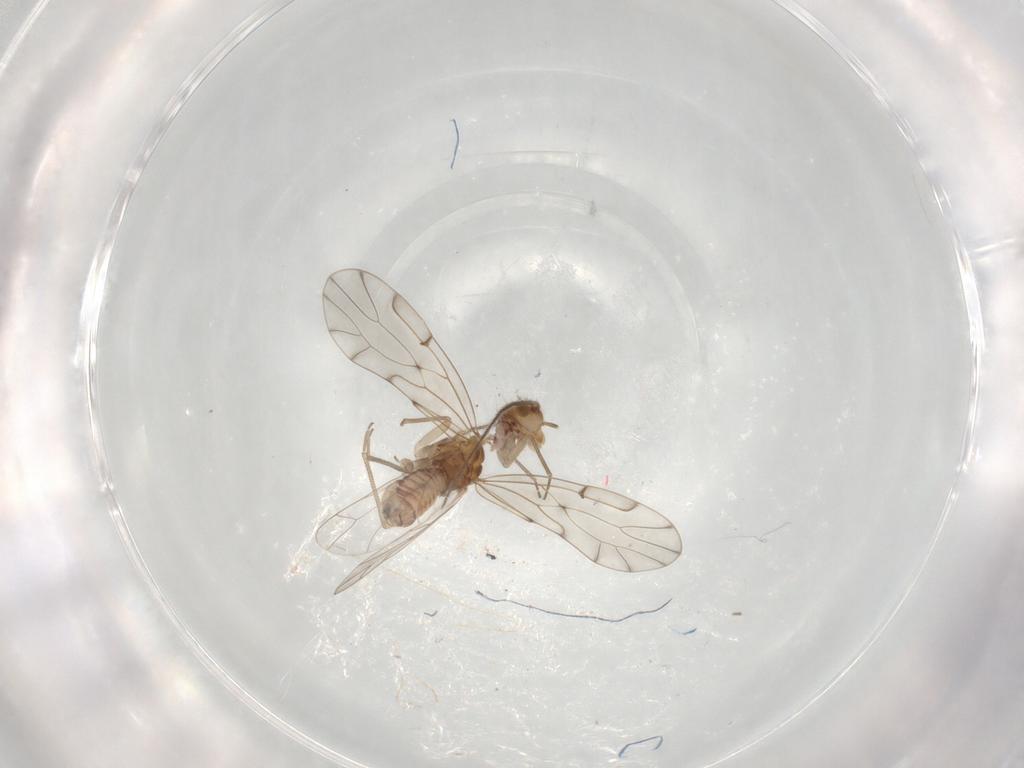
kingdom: Animalia
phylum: Arthropoda
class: Insecta
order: Psocodea
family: Ectopsocidae
